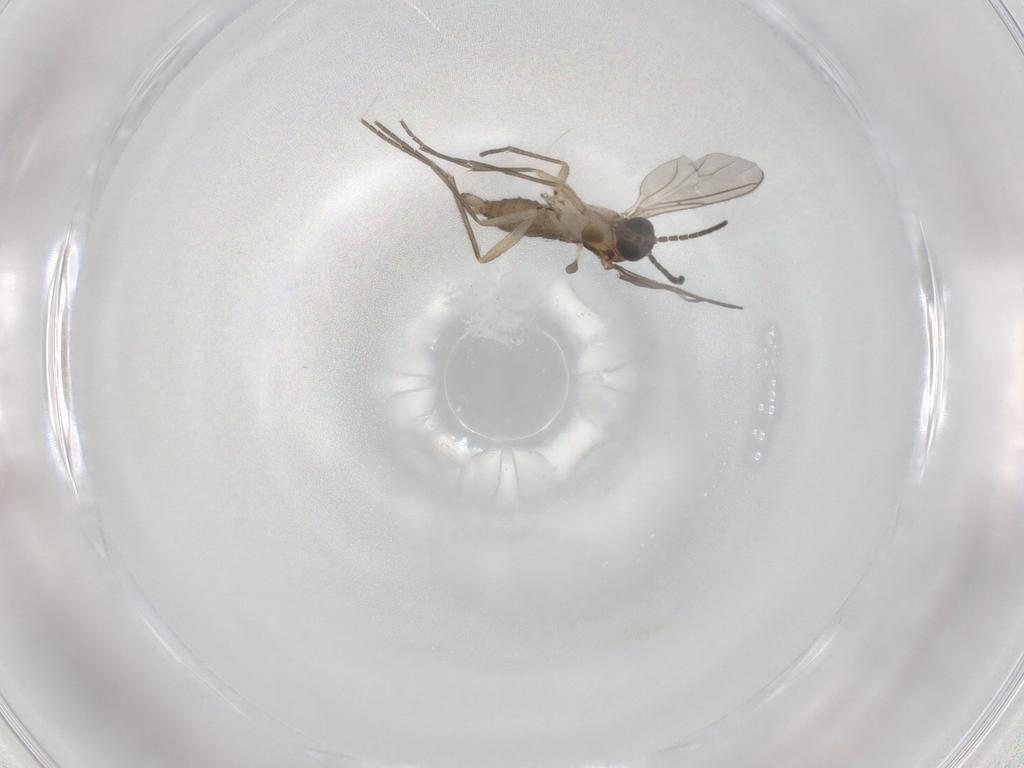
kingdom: Animalia
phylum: Arthropoda
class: Insecta
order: Diptera
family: Sciaridae
